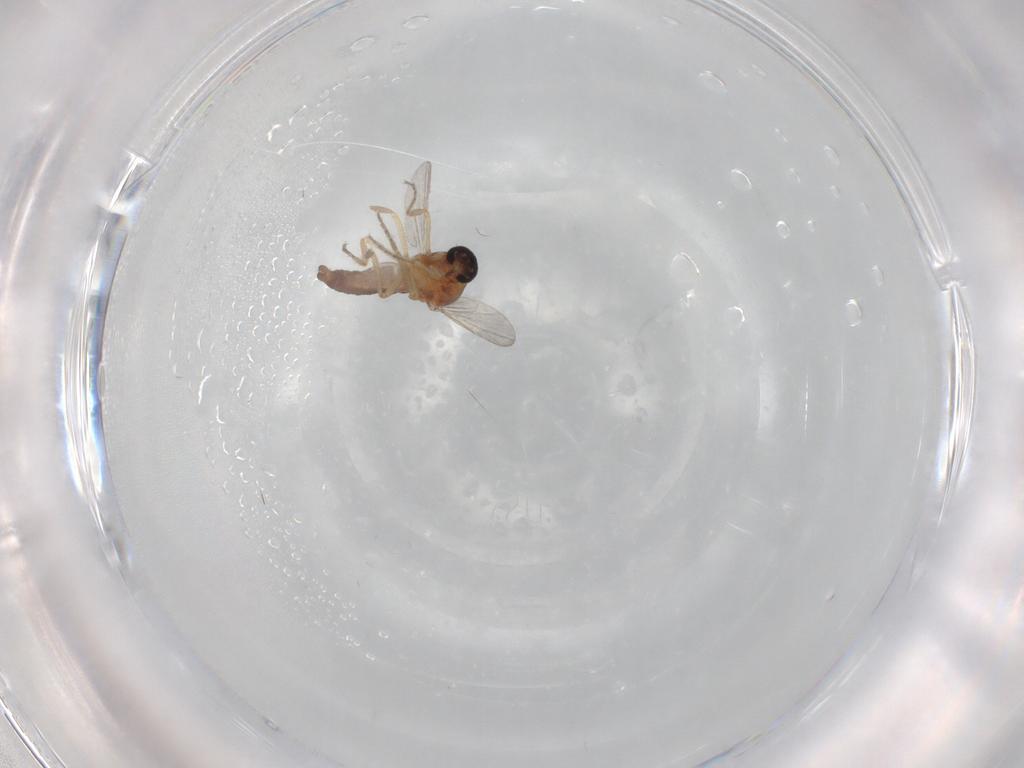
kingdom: Animalia
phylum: Arthropoda
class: Insecta
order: Diptera
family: Ceratopogonidae
